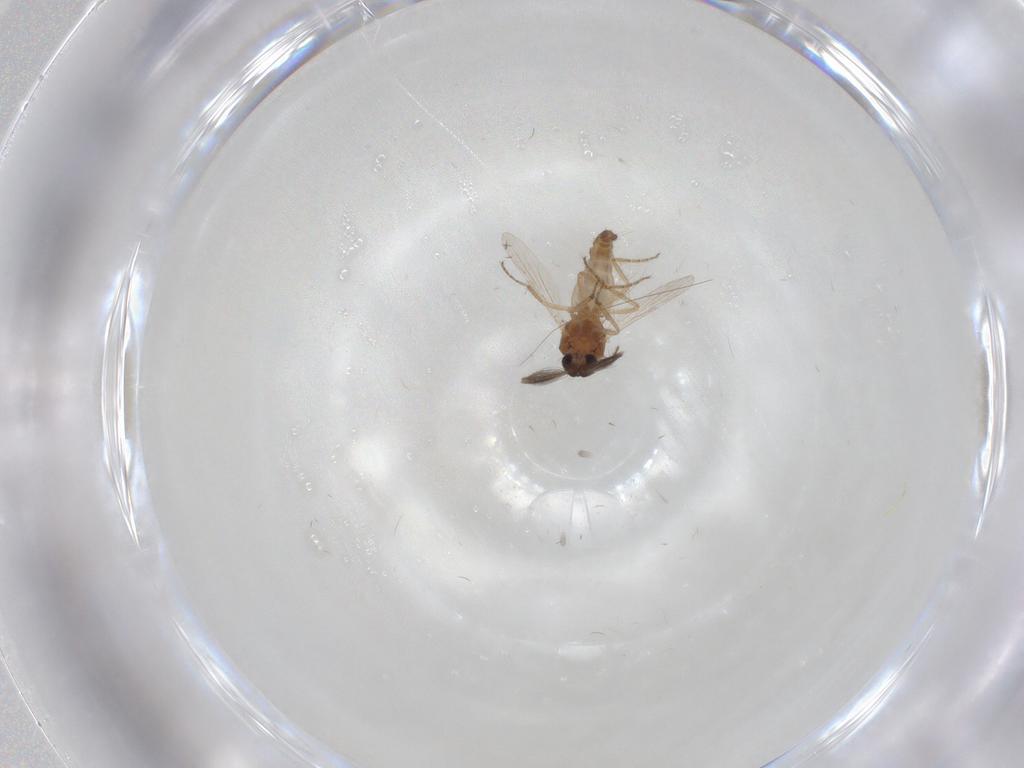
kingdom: Animalia
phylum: Arthropoda
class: Insecta
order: Diptera
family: Ceratopogonidae
